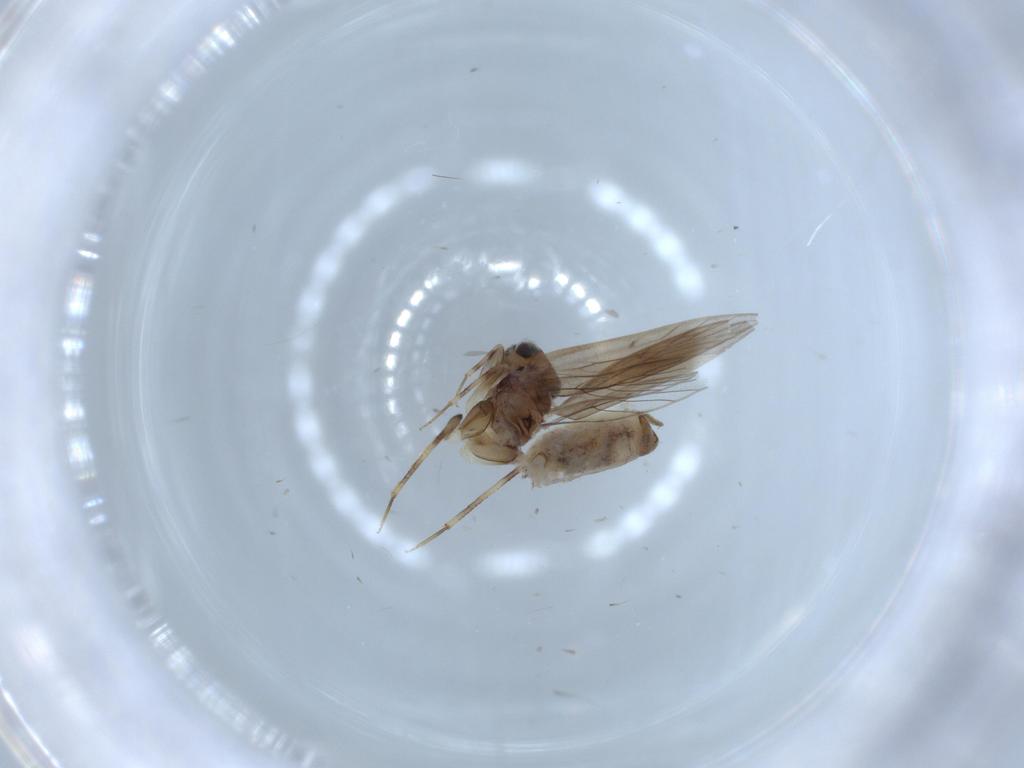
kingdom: Animalia
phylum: Arthropoda
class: Insecta
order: Psocodea
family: Lepidopsocidae
